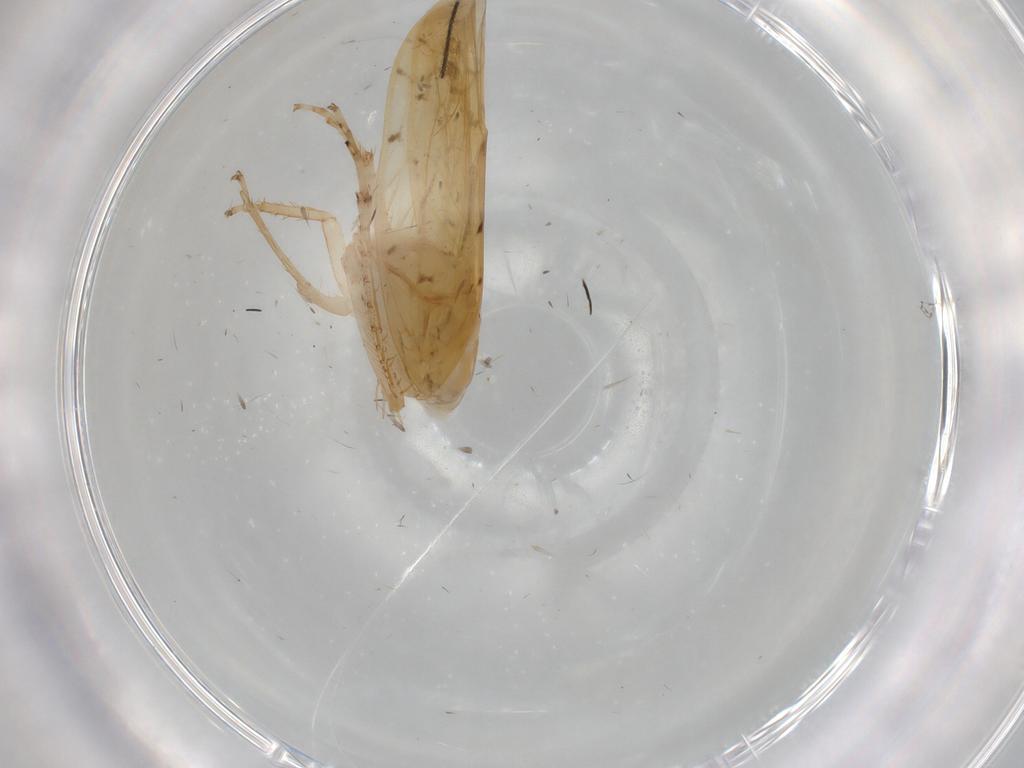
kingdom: Animalia
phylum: Arthropoda
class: Insecta
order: Hemiptera
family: Cicadellidae
